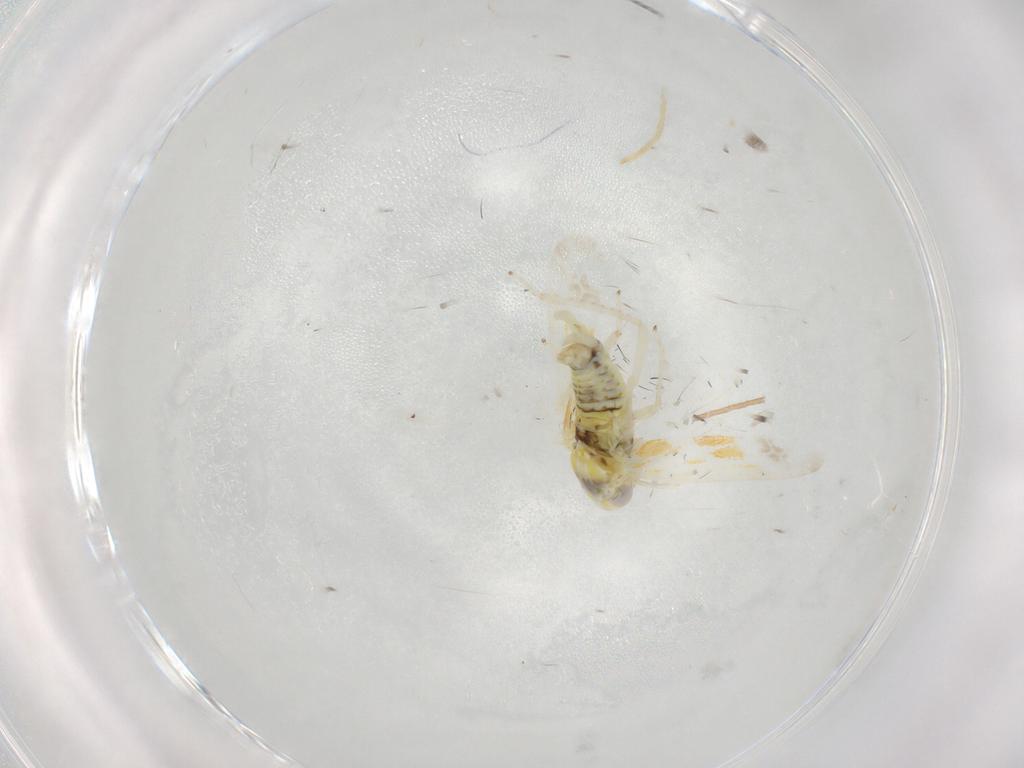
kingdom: Animalia
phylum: Arthropoda
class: Insecta
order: Hemiptera
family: Cicadellidae
